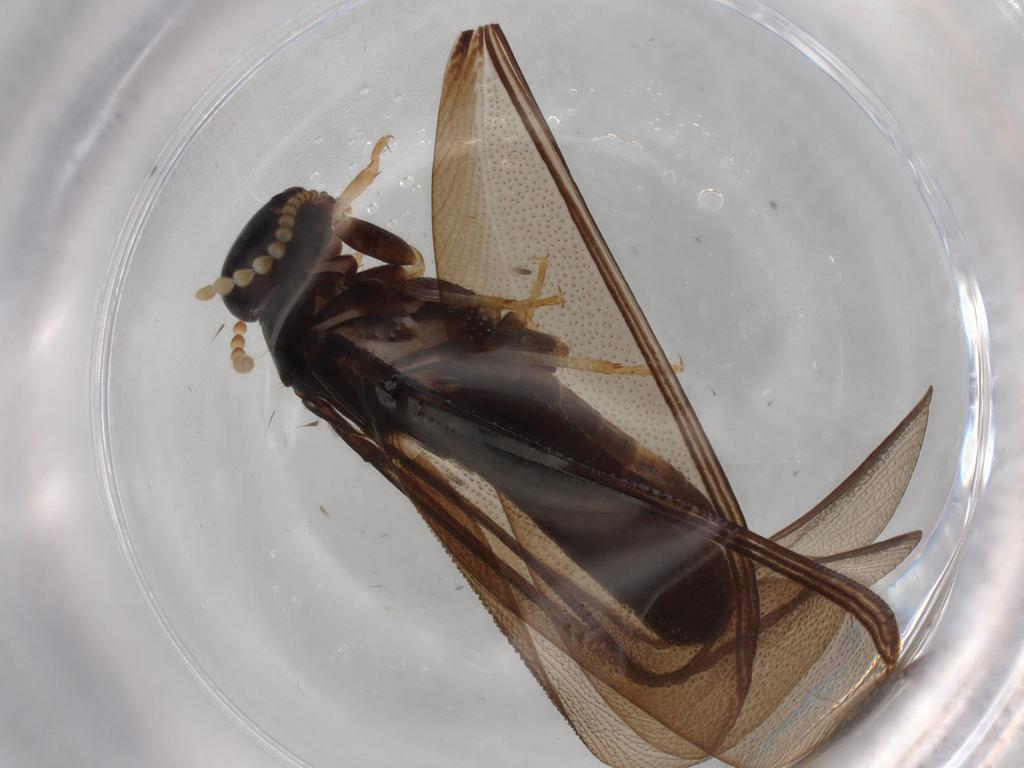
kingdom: Animalia
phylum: Arthropoda
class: Insecta
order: Blattodea
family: Kalotermitidae
